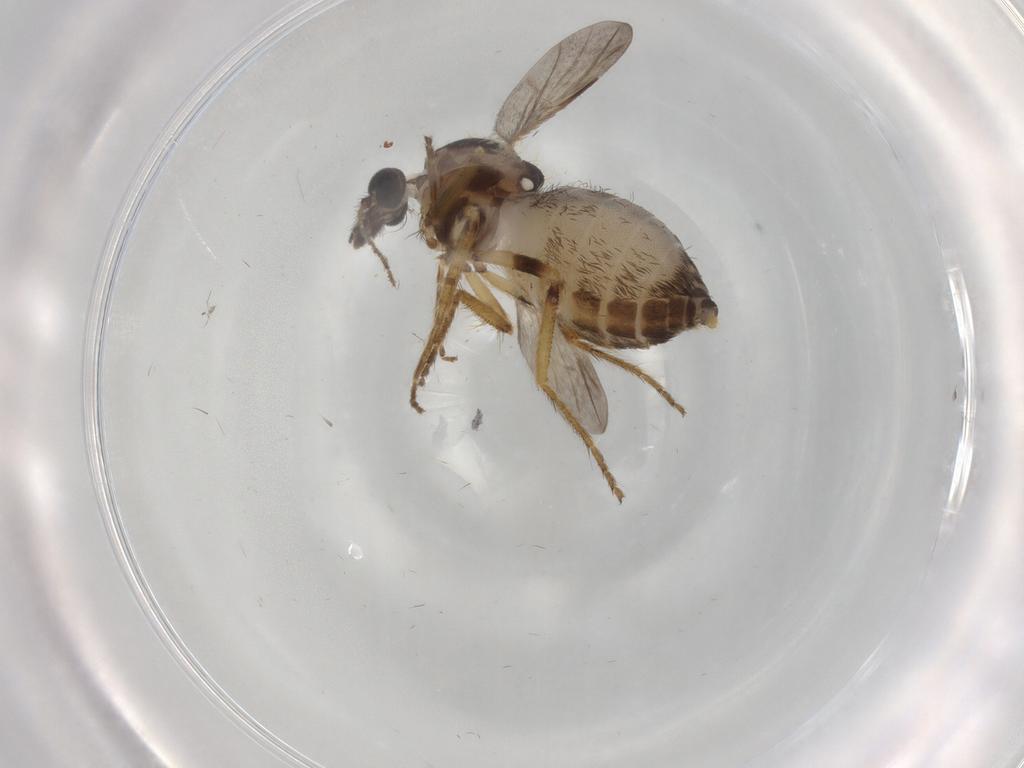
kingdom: Animalia
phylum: Arthropoda
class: Insecta
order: Diptera
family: Ceratopogonidae
